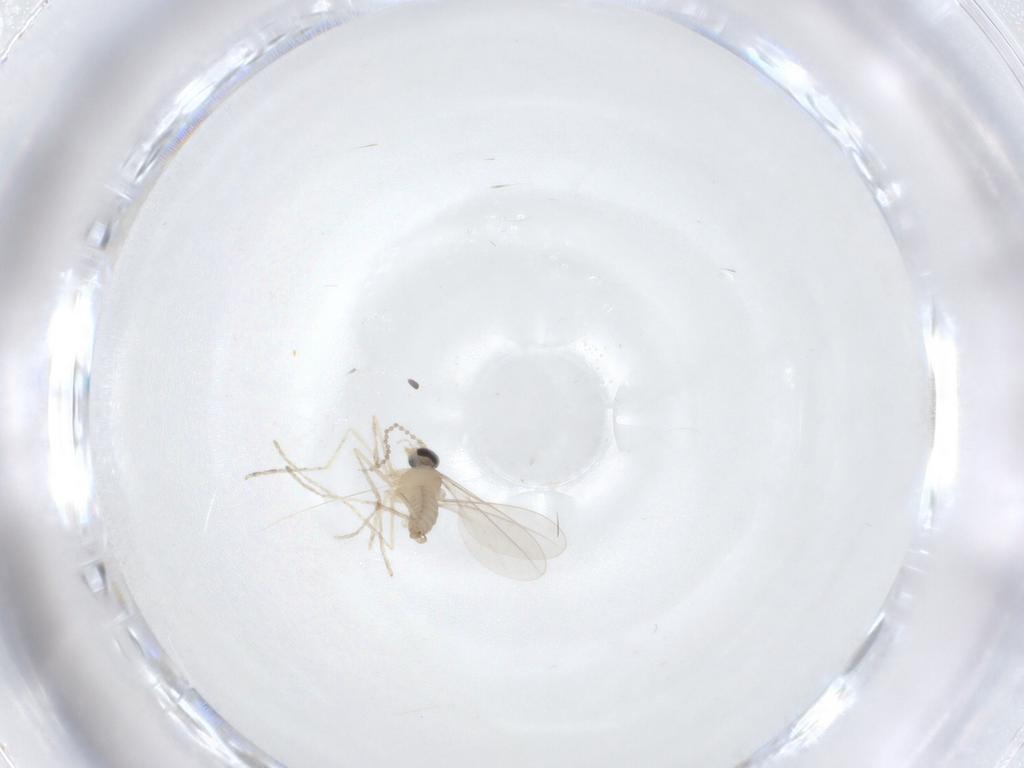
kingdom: Animalia
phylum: Arthropoda
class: Insecta
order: Diptera
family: Cecidomyiidae
